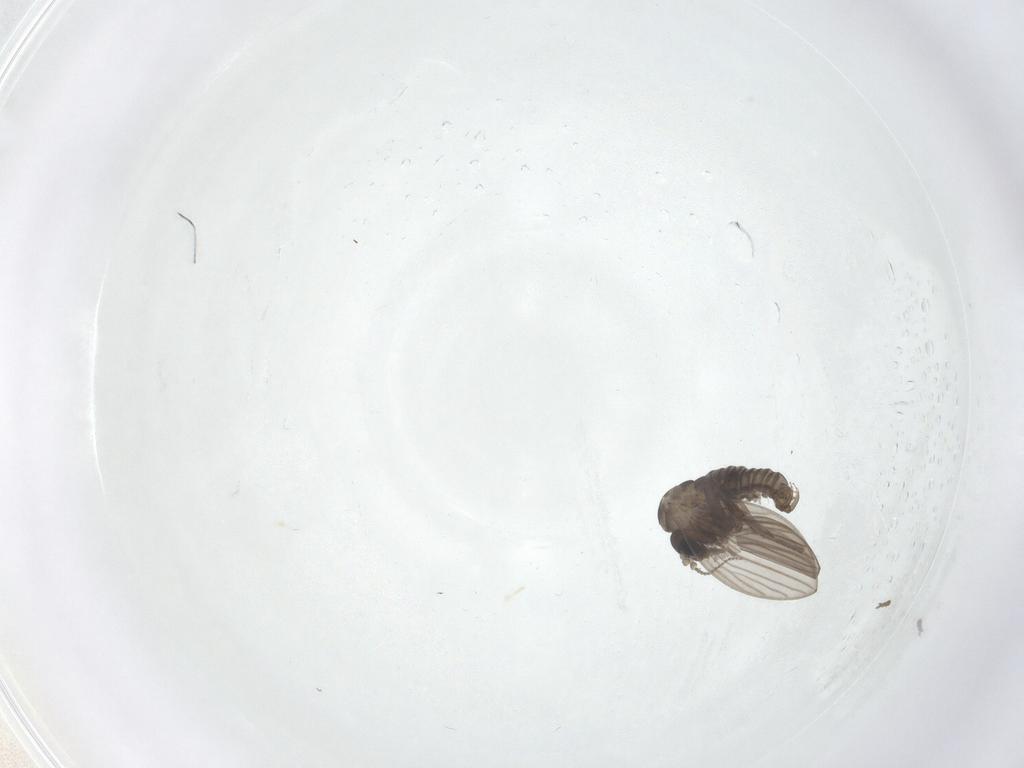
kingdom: Animalia
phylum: Arthropoda
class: Insecta
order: Diptera
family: Psychodidae
